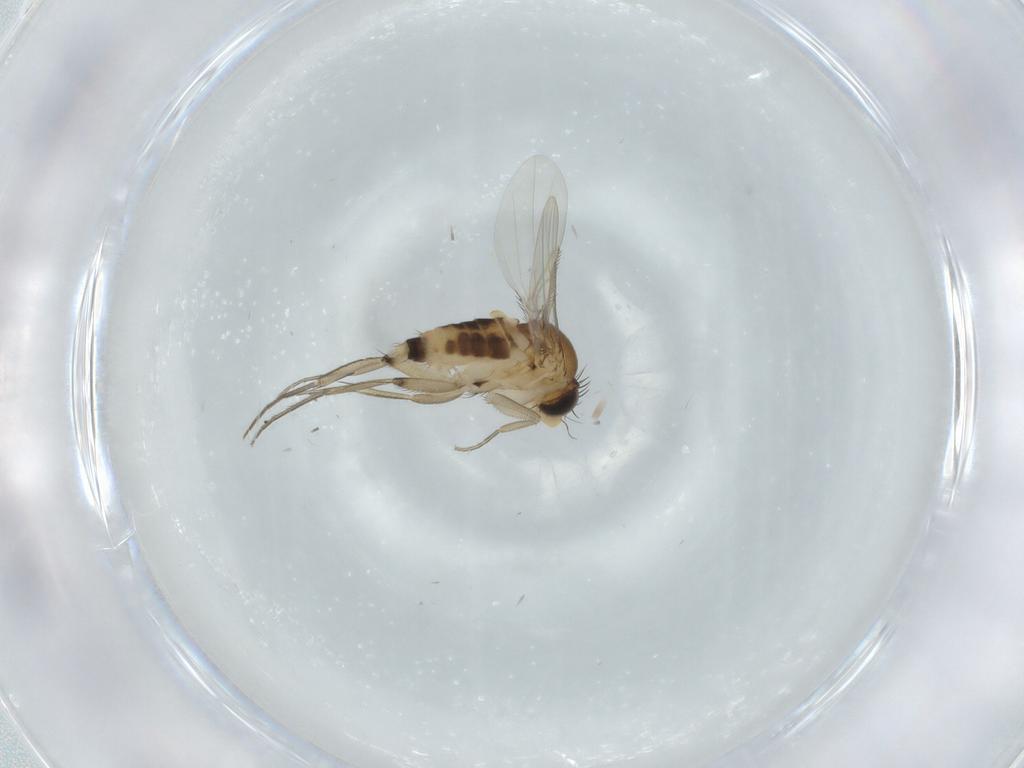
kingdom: Animalia
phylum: Arthropoda
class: Insecta
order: Diptera
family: Phoridae
